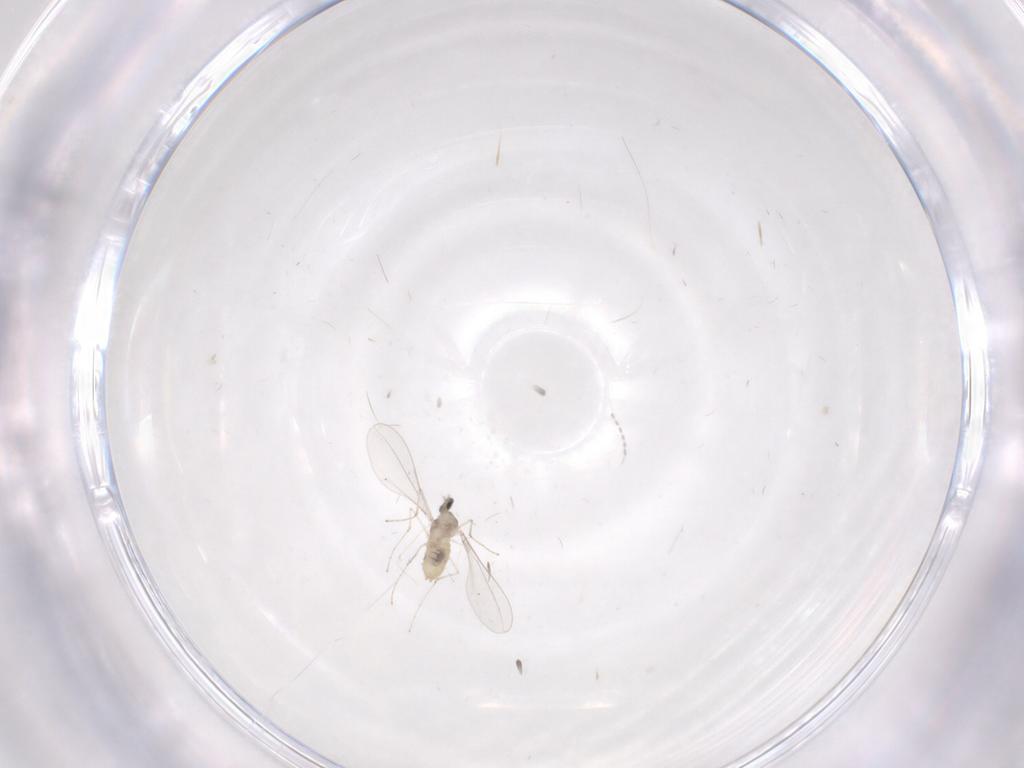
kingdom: Animalia
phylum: Arthropoda
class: Insecta
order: Diptera
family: Cecidomyiidae
